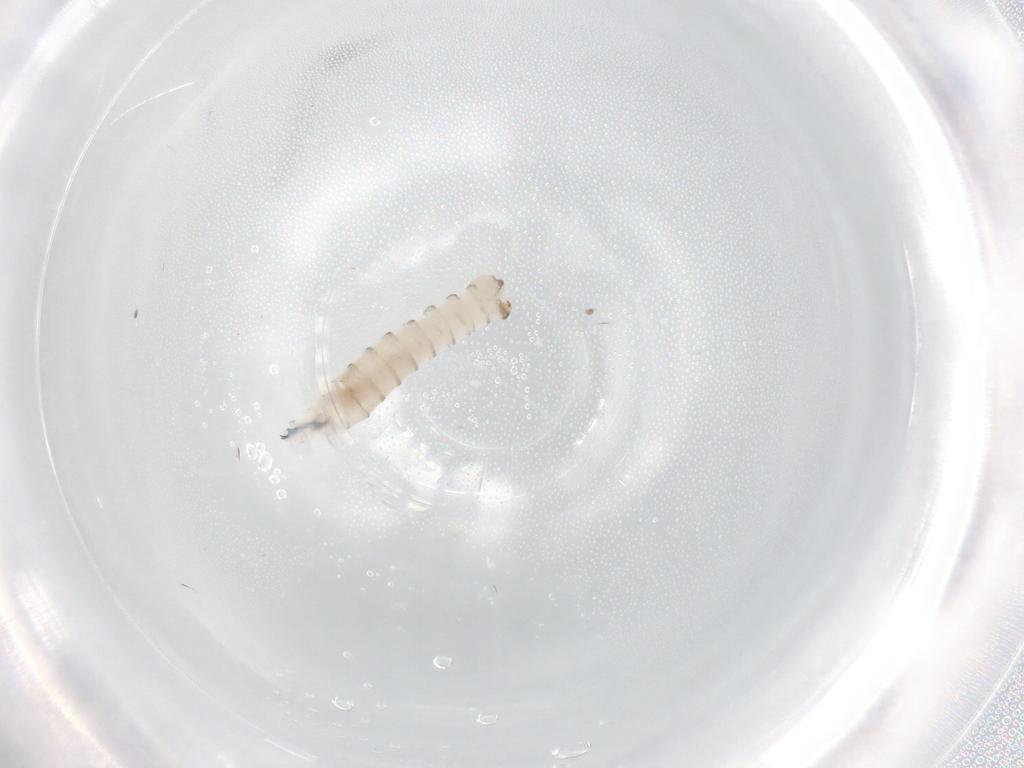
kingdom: Animalia
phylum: Arthropoda
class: Insecta
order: Diptera
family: Sarcophagidae
